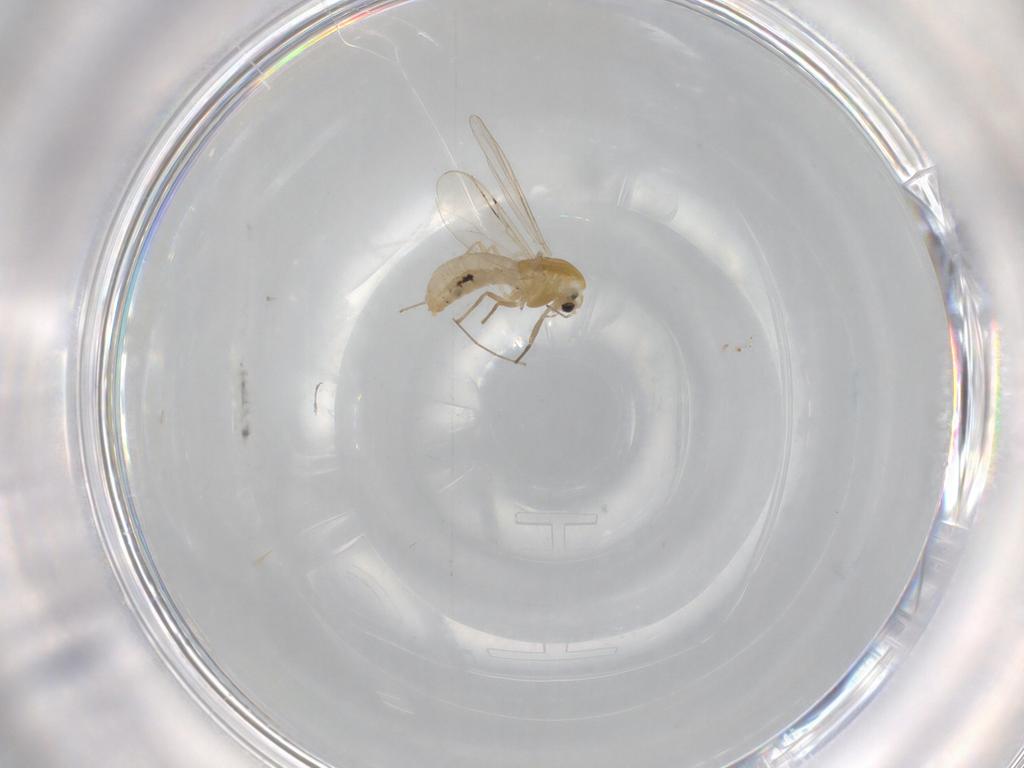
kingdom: Animalia
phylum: Arthropoda
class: Insecta
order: Diptera
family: Chironomidae
